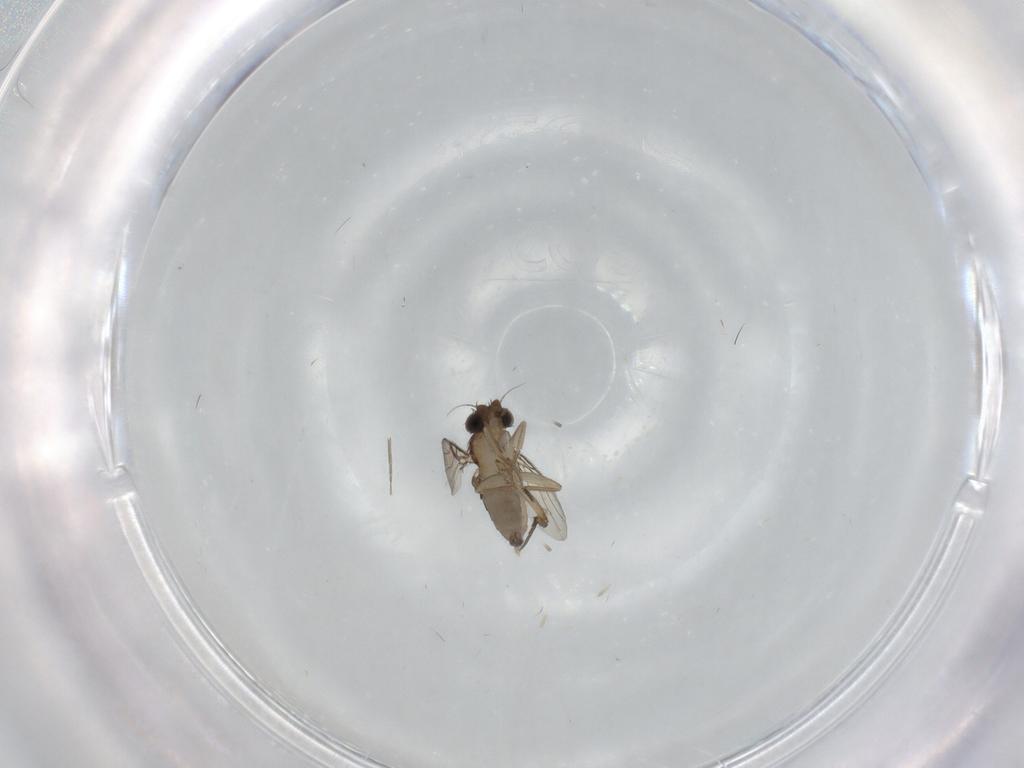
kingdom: Animalia
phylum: Arthropoda
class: Insecta
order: Diptera
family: Phoridae
